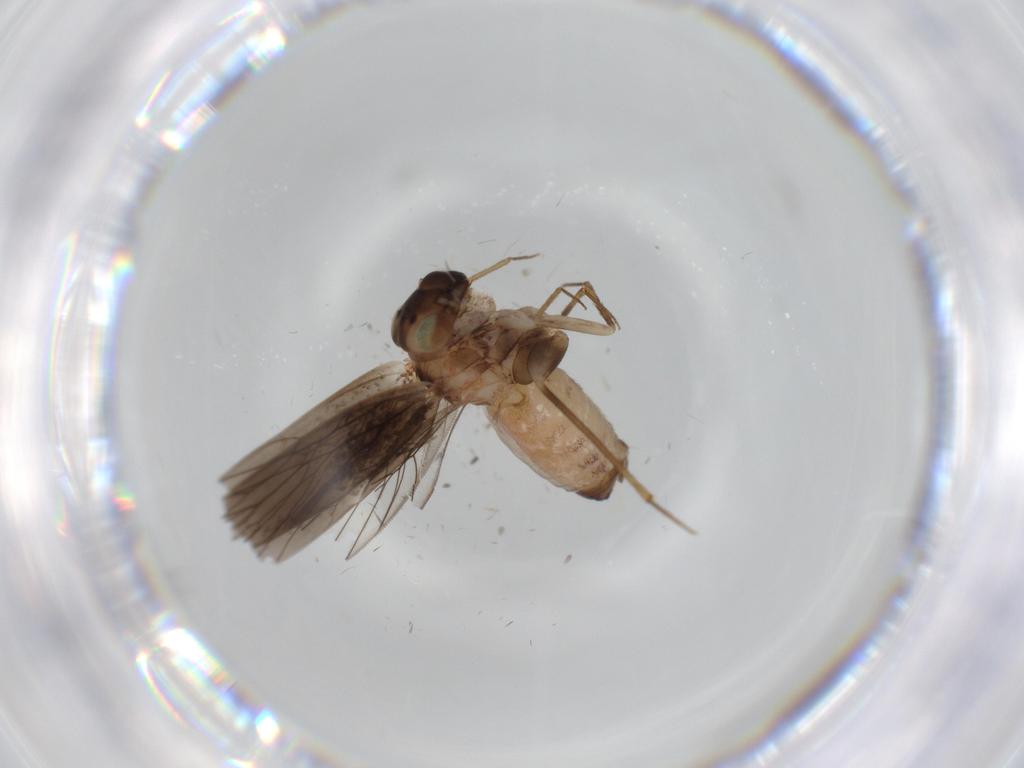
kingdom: Animalia
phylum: Arthropoda
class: Insecta
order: Psocodea
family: Lepidopsocidae
